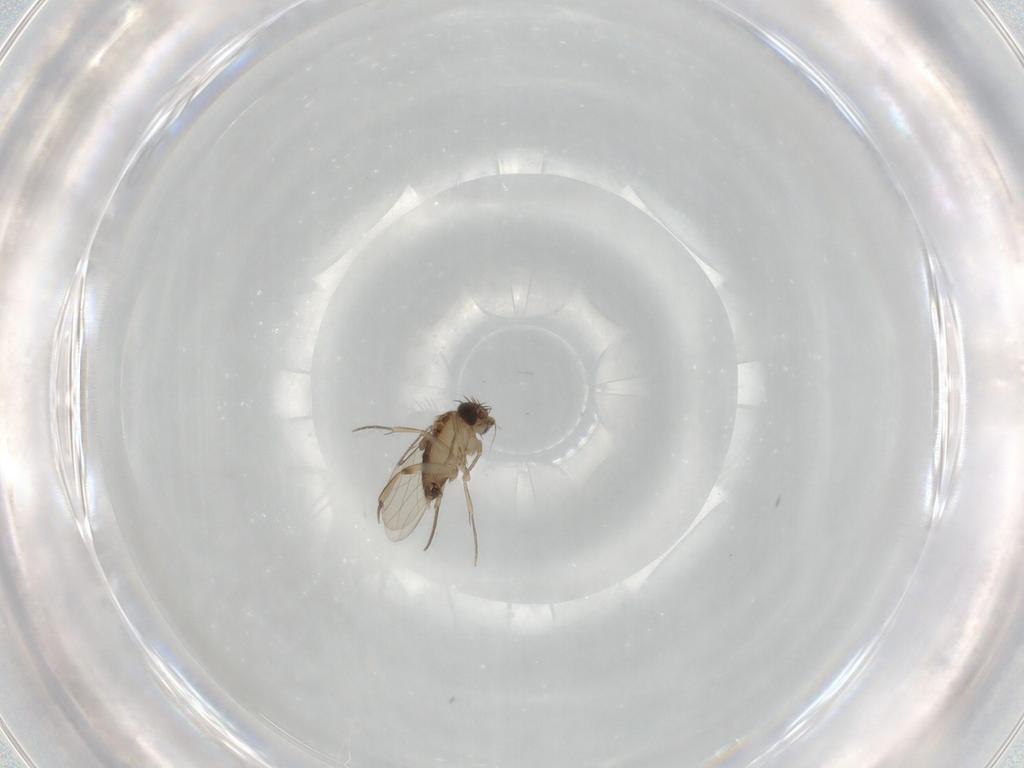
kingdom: Animalia
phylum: Arthropoda
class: Insecta
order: Diptera
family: Phoridae
